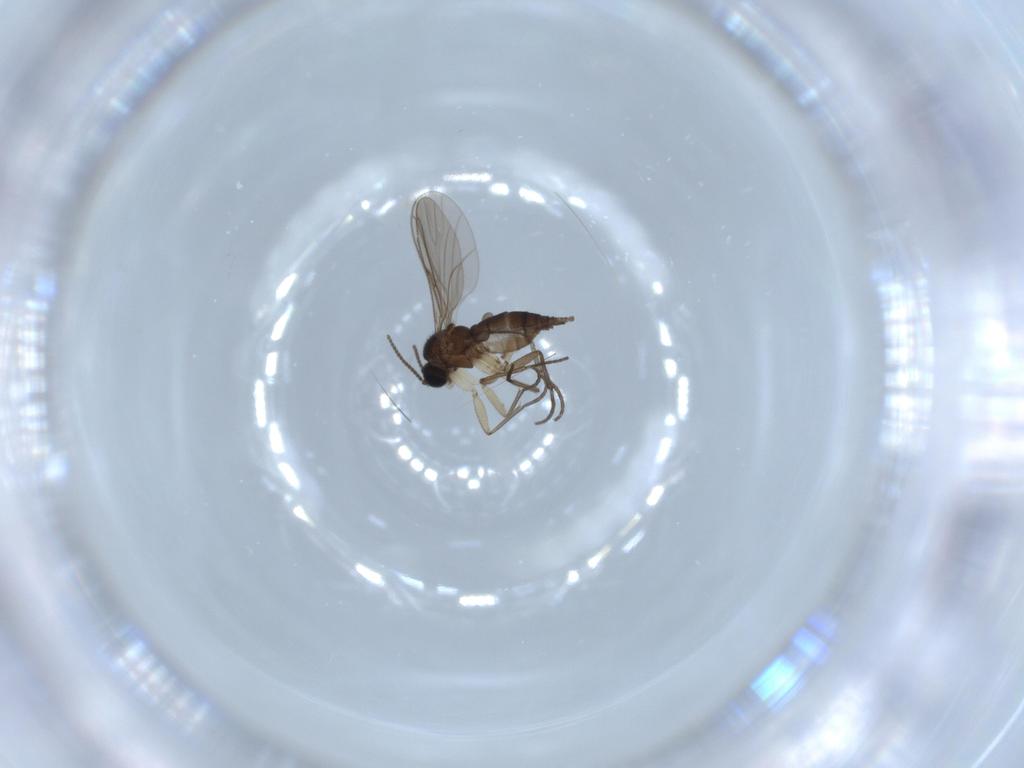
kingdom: Animalia
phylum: Arthropoda
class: Insecta
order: Diptera
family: Sciaridae
